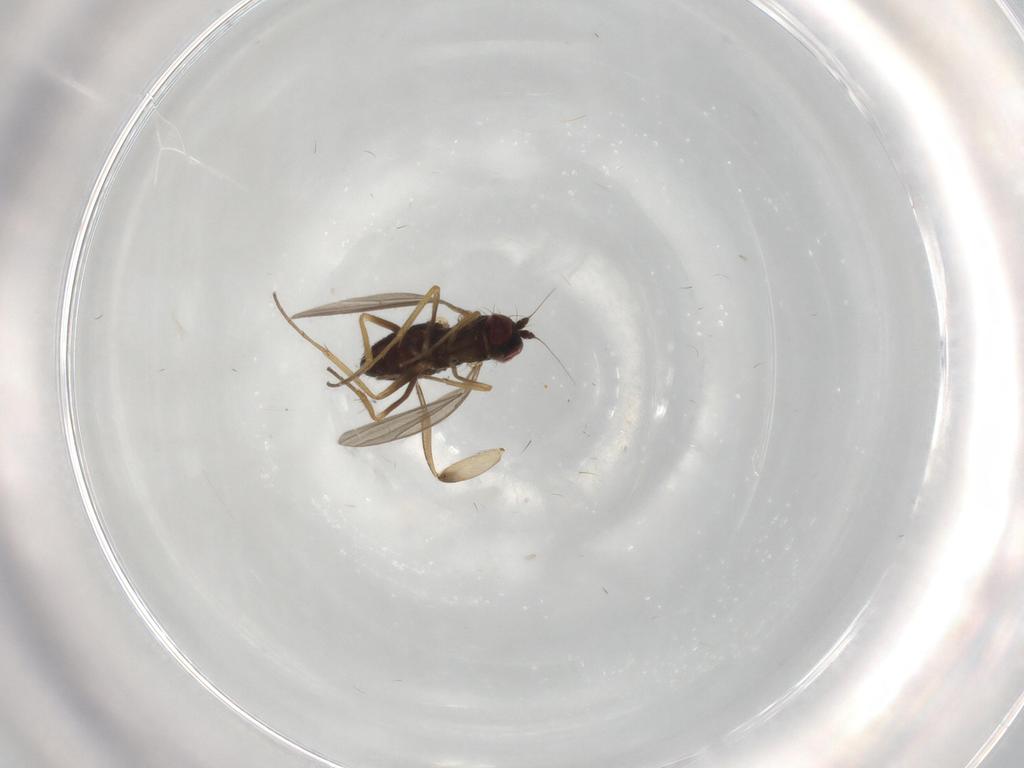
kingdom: Animalia
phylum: Arthropoda
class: Insecta
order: Diptera
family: Dolichopodidae
